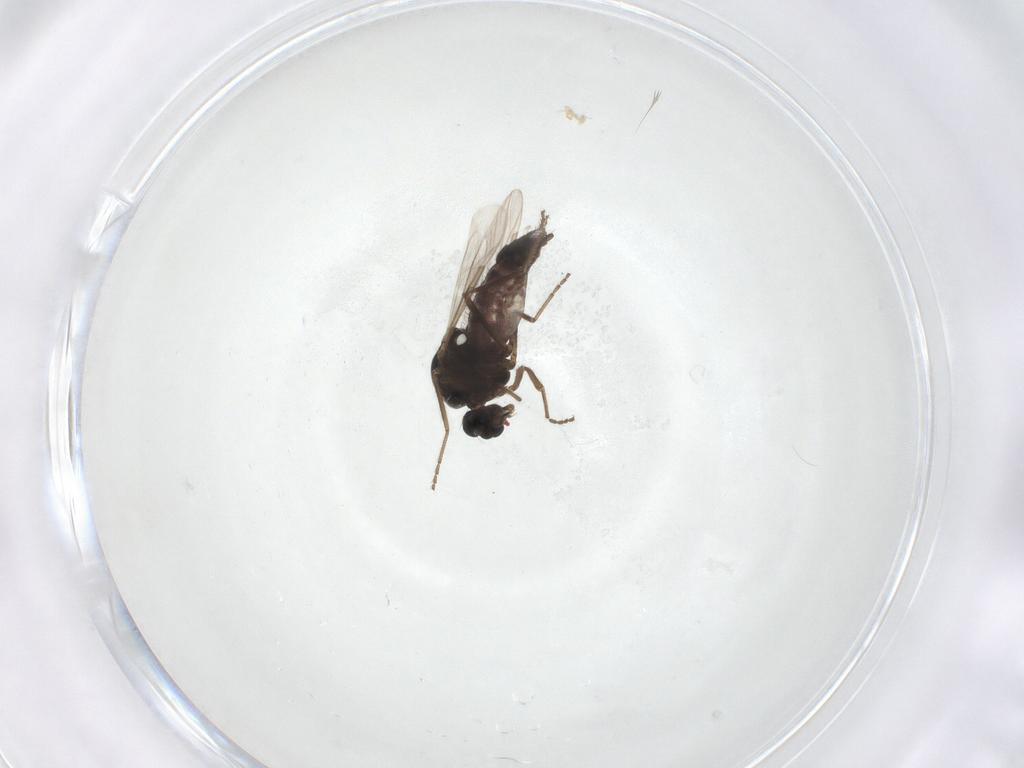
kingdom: Animalia
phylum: Arthropoda
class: Insecta
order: Diptera
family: Ceratopogonidae
